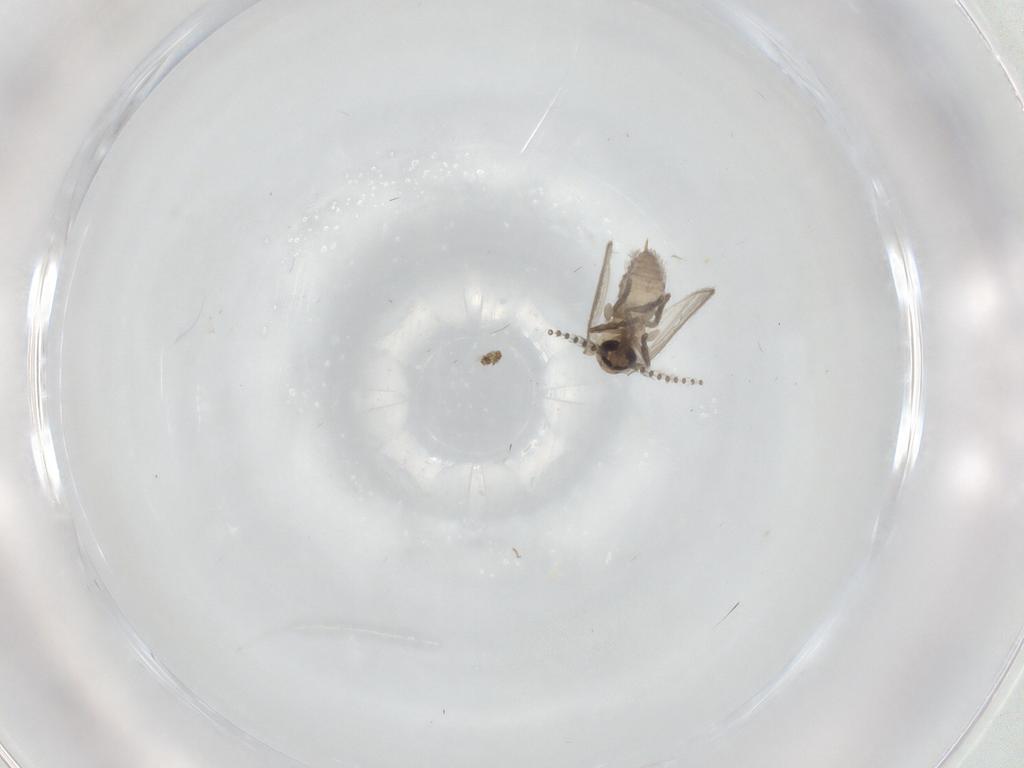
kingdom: Animalia
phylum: Arthropoda
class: Insecta
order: Diptera
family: Psychodidae
